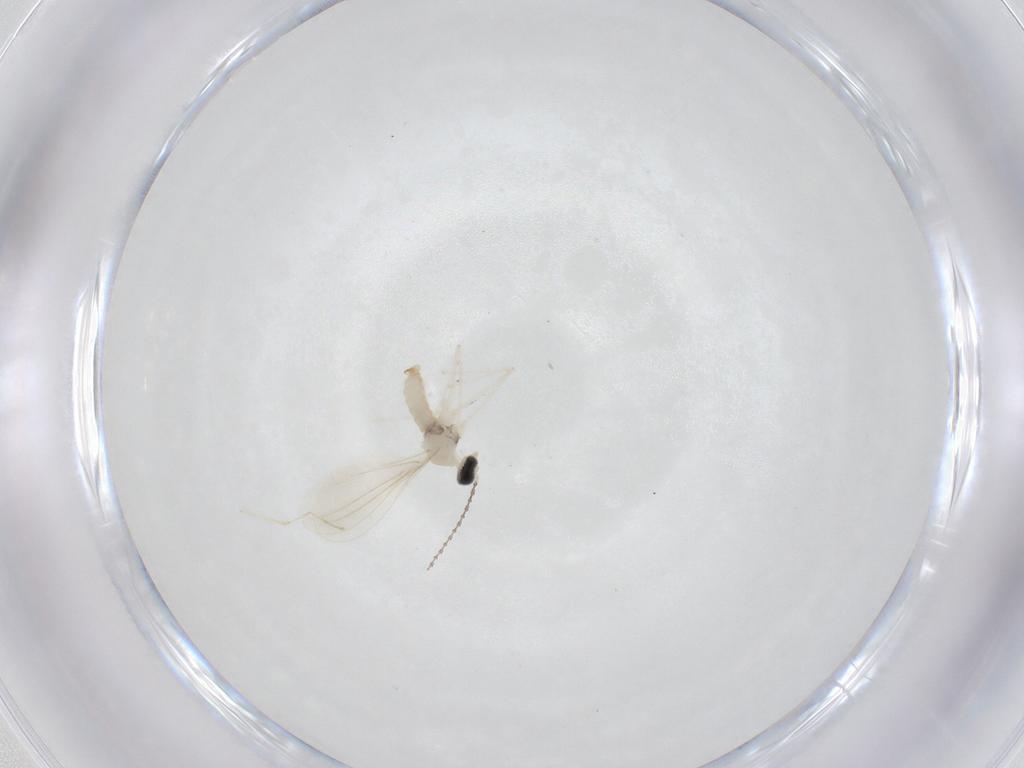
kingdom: Animalia
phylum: Arthropoda
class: Insecta
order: Diptera
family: Cecidomyiidae
